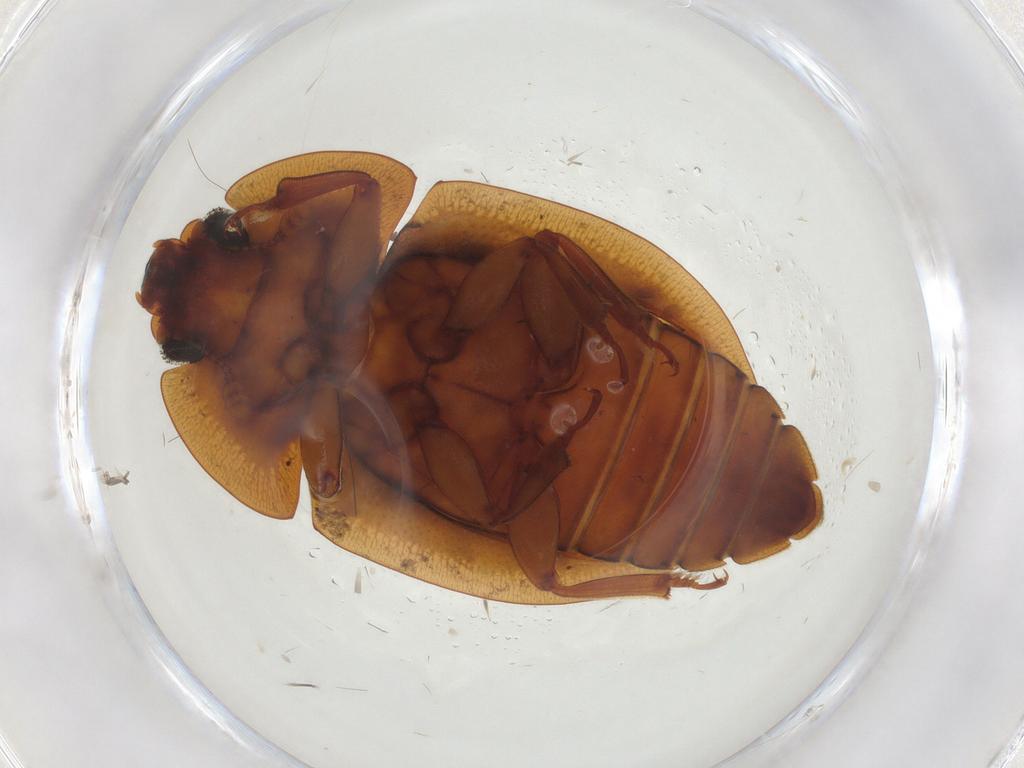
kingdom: Animalia
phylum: Arthropoda
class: Insecta
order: Coleoptera
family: Nitidulidae
